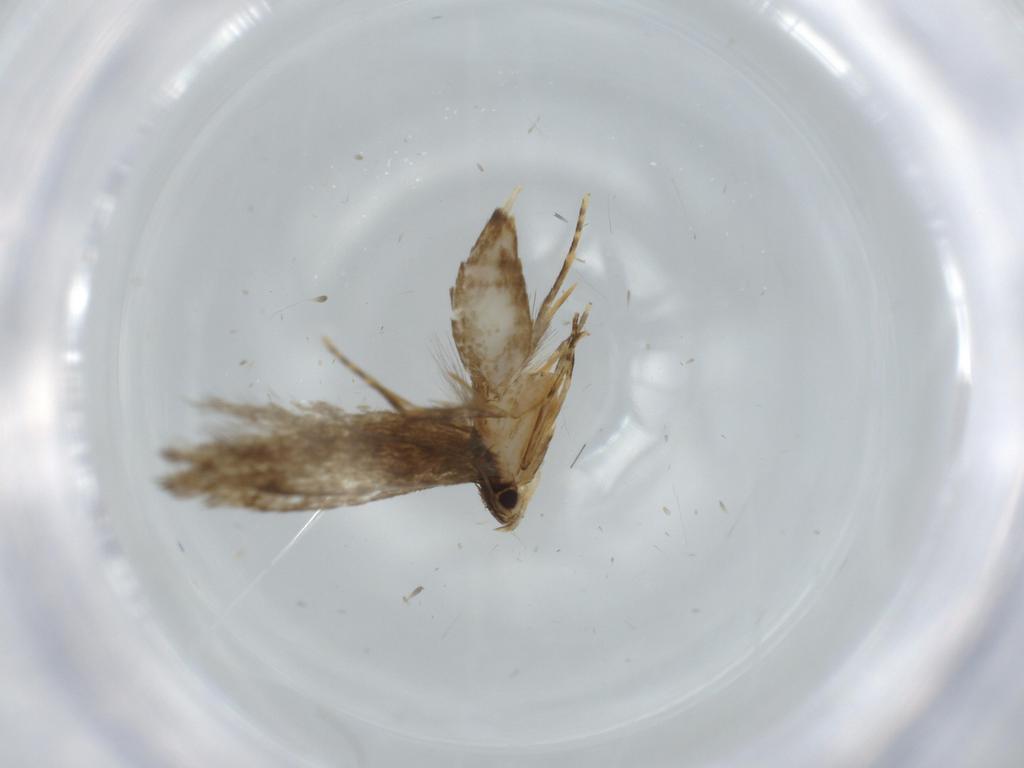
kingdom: Animalia
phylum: Arthropoda
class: Insecta
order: Lepidoptera
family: Tineidae
